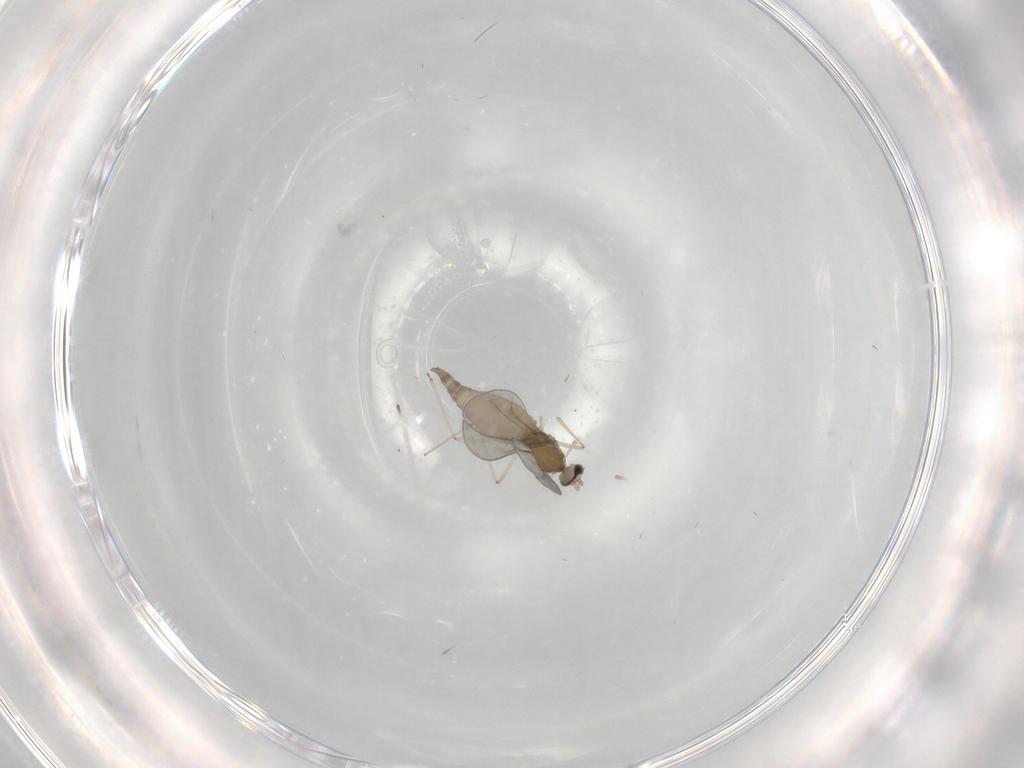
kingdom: Animalia
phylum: Arthropoda
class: Insecta
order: Diptera
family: Cecidomyiidae
